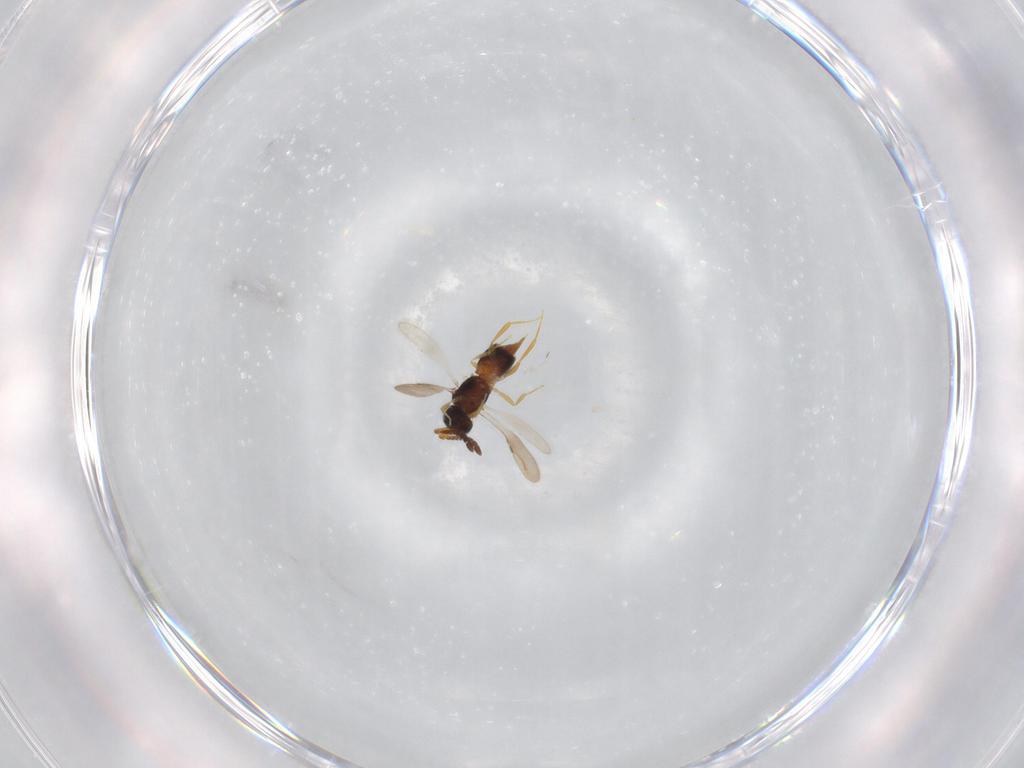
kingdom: Animalia
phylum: Arthropoda
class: Insecta
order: Hymenoptera
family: Ceraphronidae
